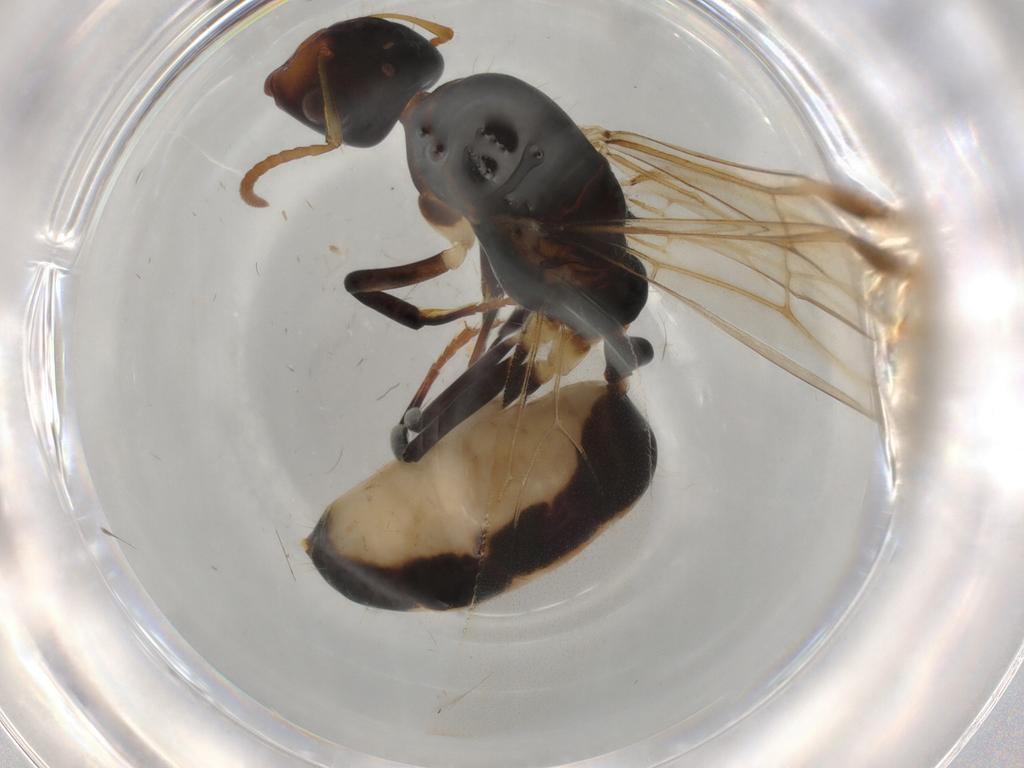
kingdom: Animalia
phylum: Arthropoda
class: Insecta
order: Hymenoptera
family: Formicidae
